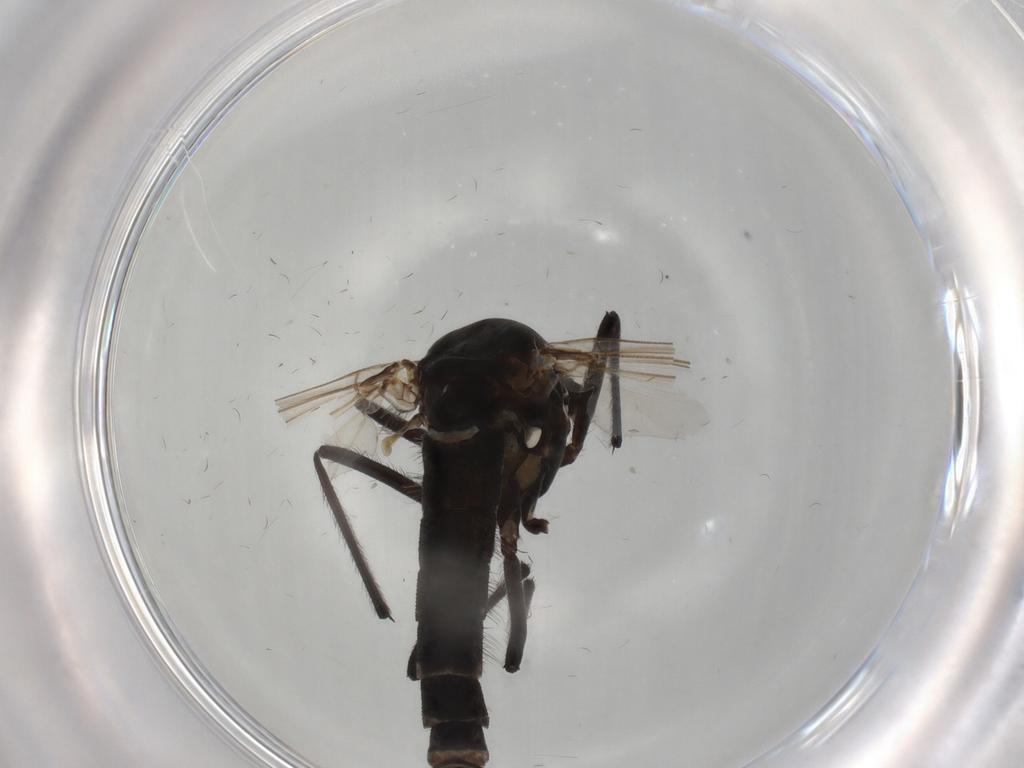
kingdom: Animalia
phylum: Arthropoda
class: Insecta
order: Diptera
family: Chironomidae
